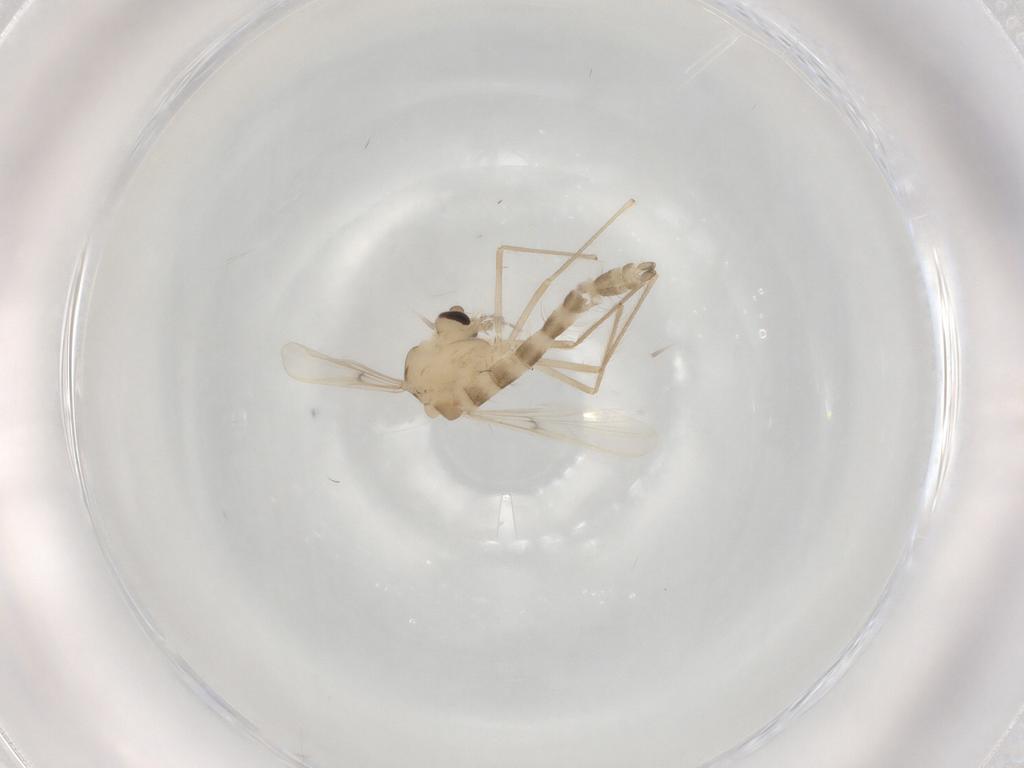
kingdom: Animalia
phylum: Arthropoda
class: Insecta
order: Diptera
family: Chironomidae
